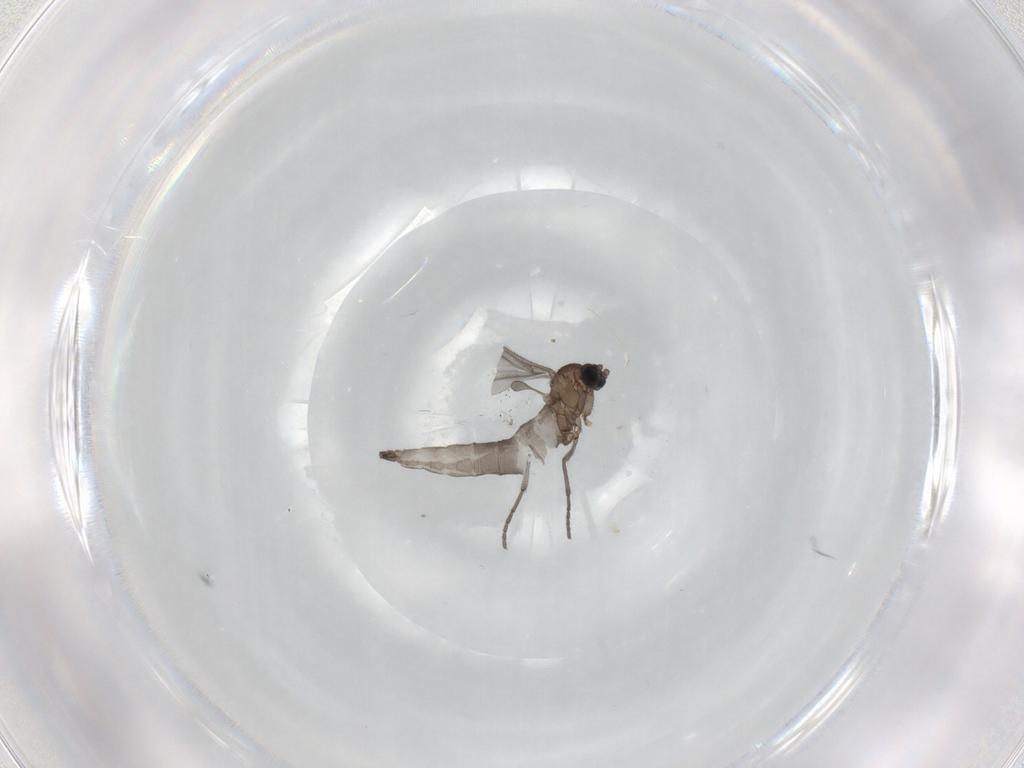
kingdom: Animalia
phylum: Arthropoda
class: Insecta
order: Diptera
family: Sciaridae
